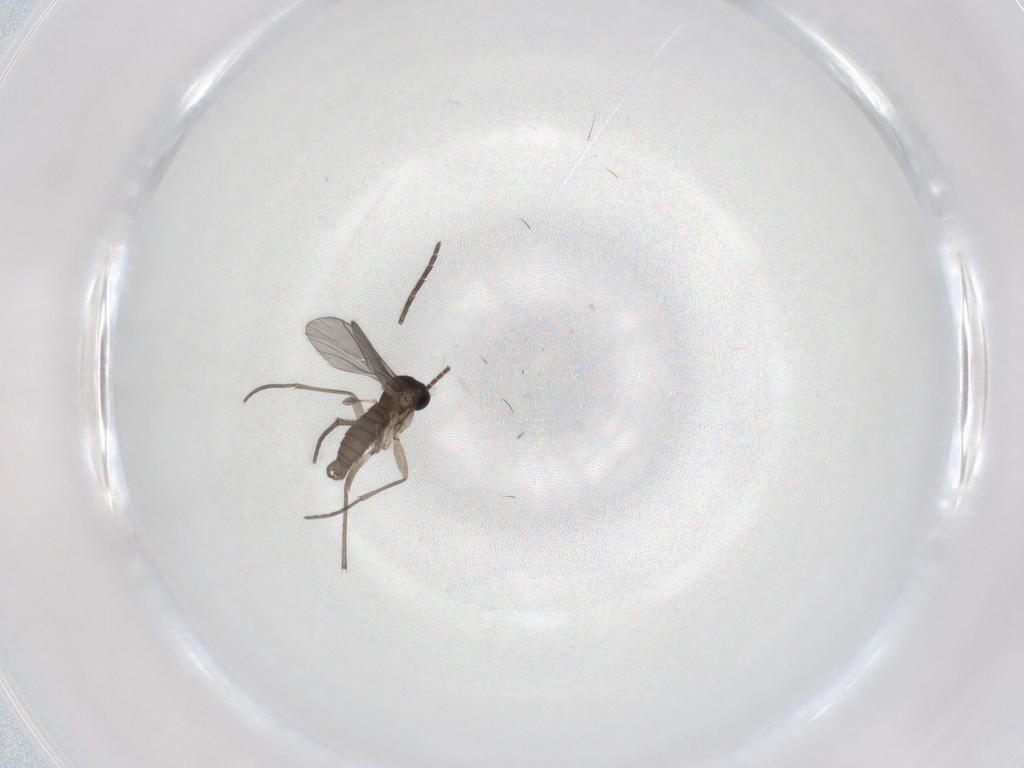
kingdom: Animalia
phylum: Arthropoda
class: Insecta
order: Diptera
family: Sciaridae
